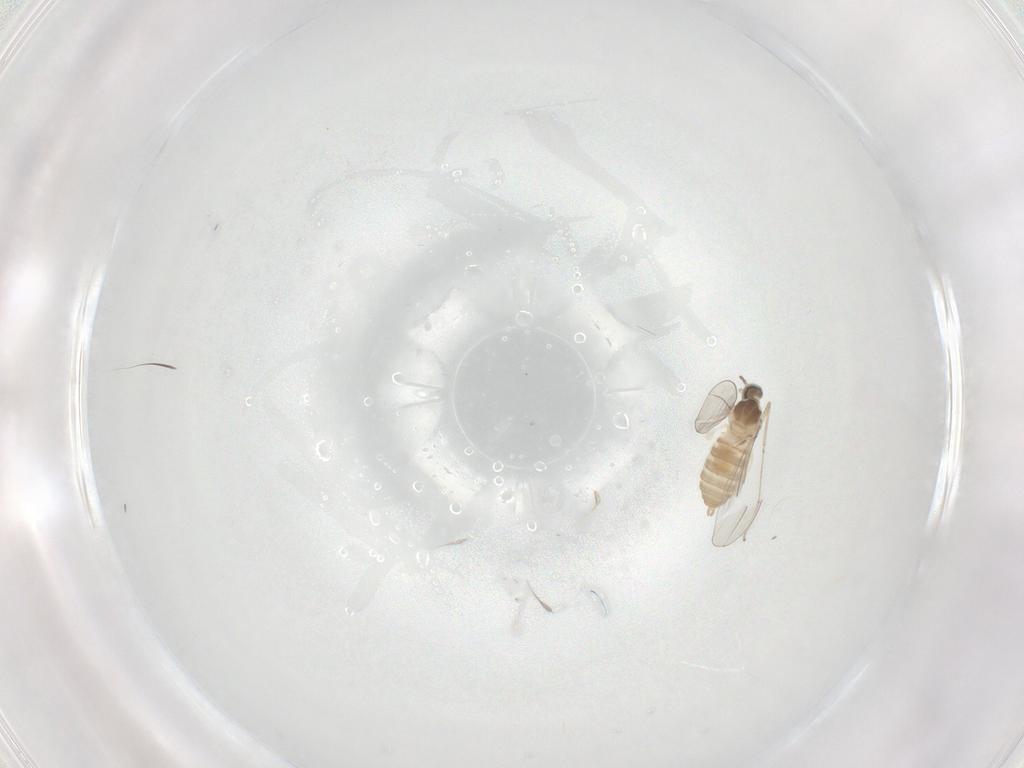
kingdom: Animalia
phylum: Arthropoda
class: Insecta
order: Diptera
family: Cecidomyiidae
